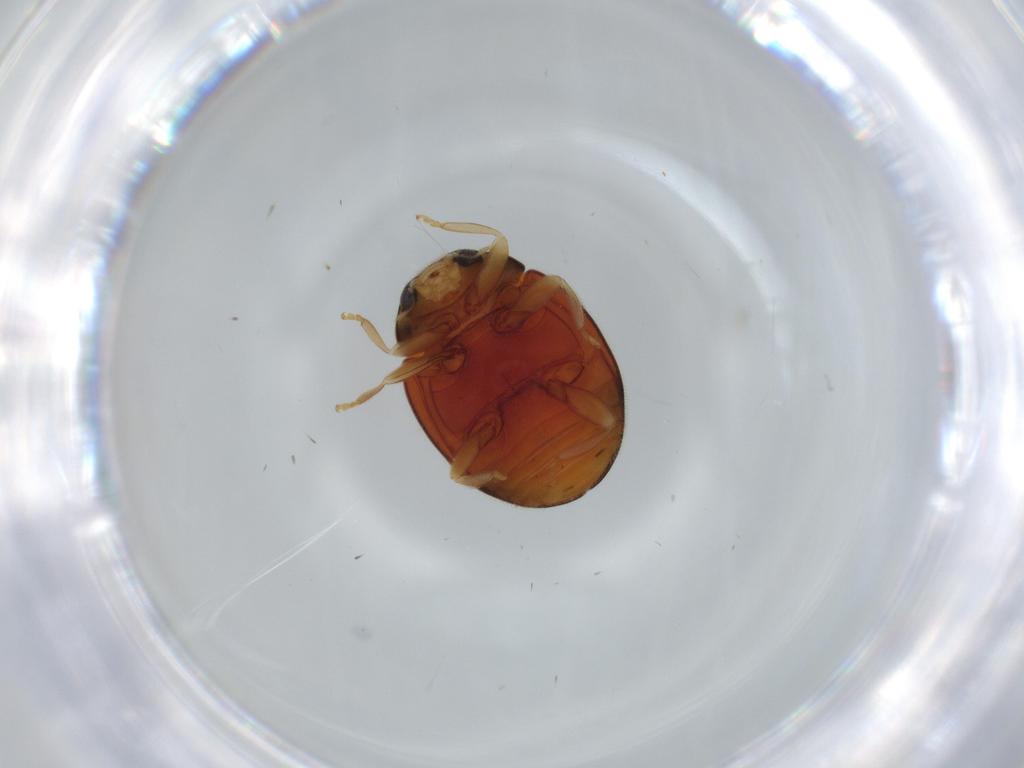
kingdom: Animalia
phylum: Arthropoda
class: Insecta
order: Coleoptera
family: Coccinellidae
